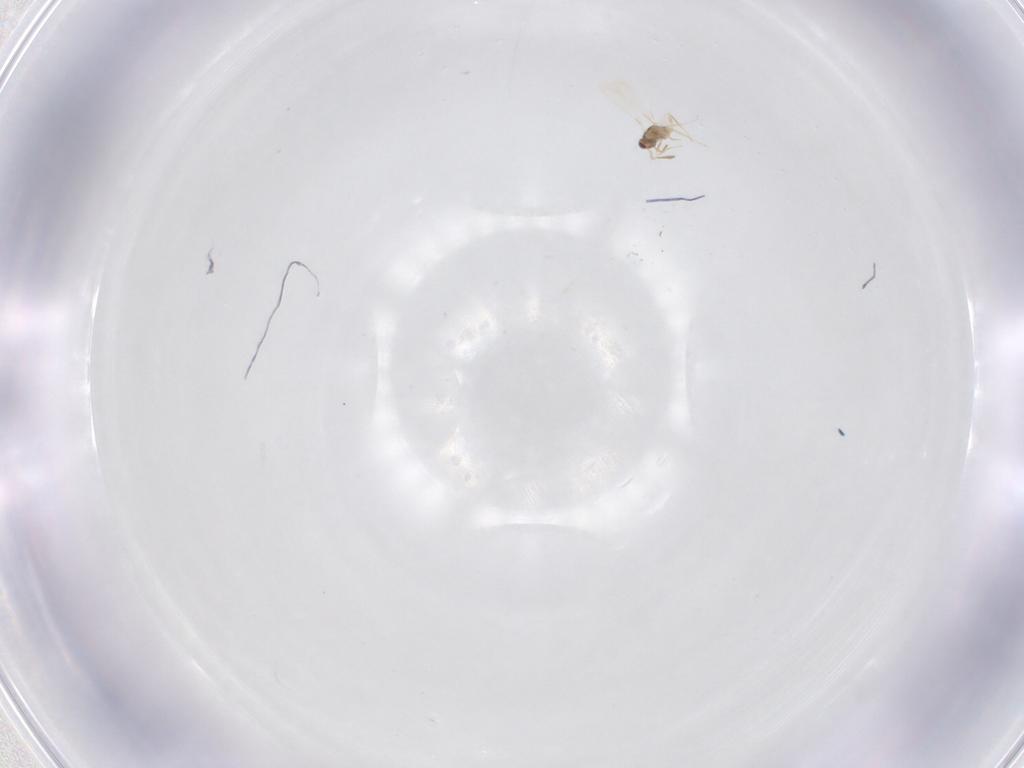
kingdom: Animalia
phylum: Arthropoda
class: Insecta
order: Hymenoptera
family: Mymaridae
